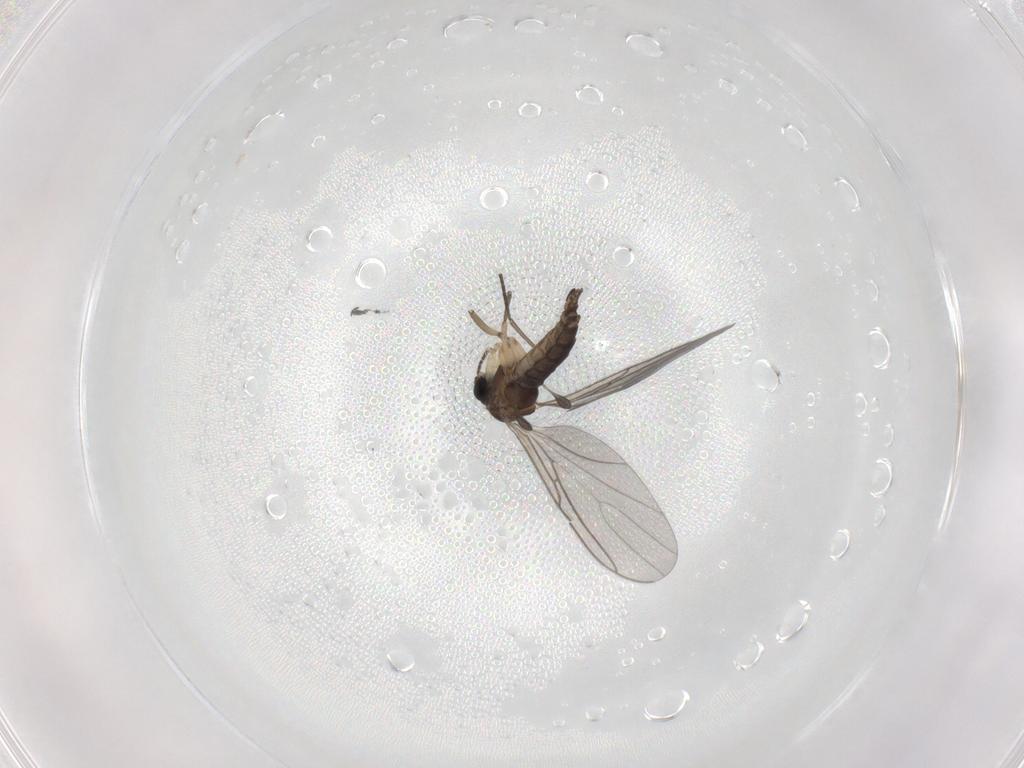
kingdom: Animalia
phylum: Arthropoda
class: Insecta
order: Diptera
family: Sciaridae
